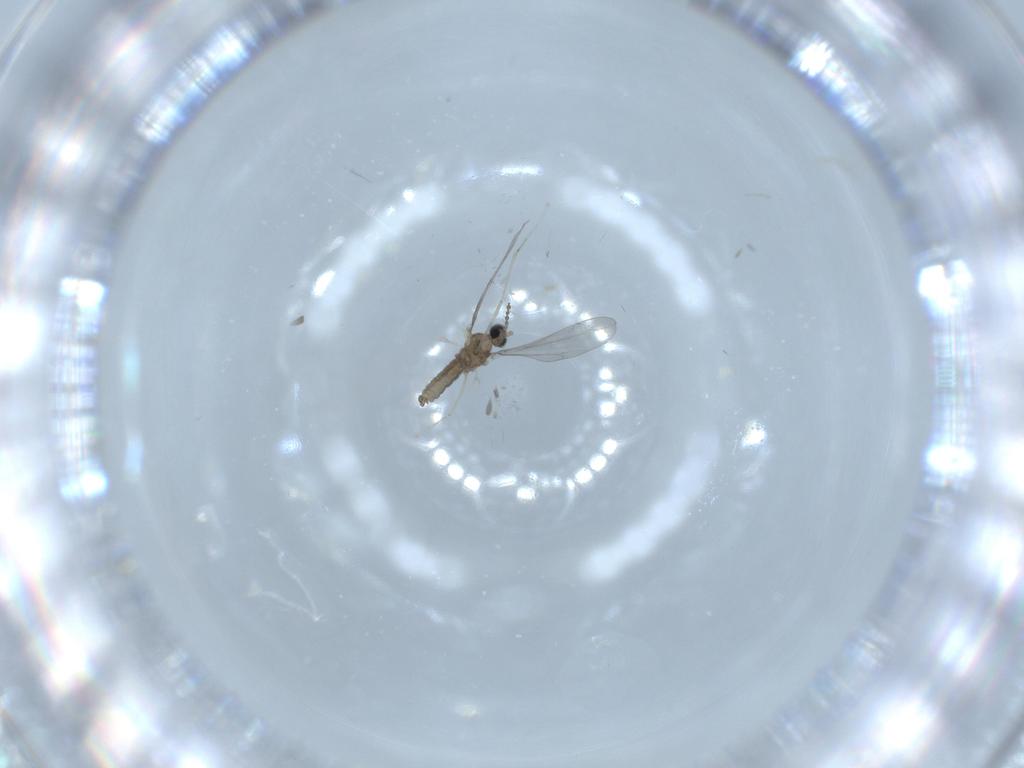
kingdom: Animalia
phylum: Arthropoda
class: Insecta
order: Diptera
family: Cecidomyiidae
